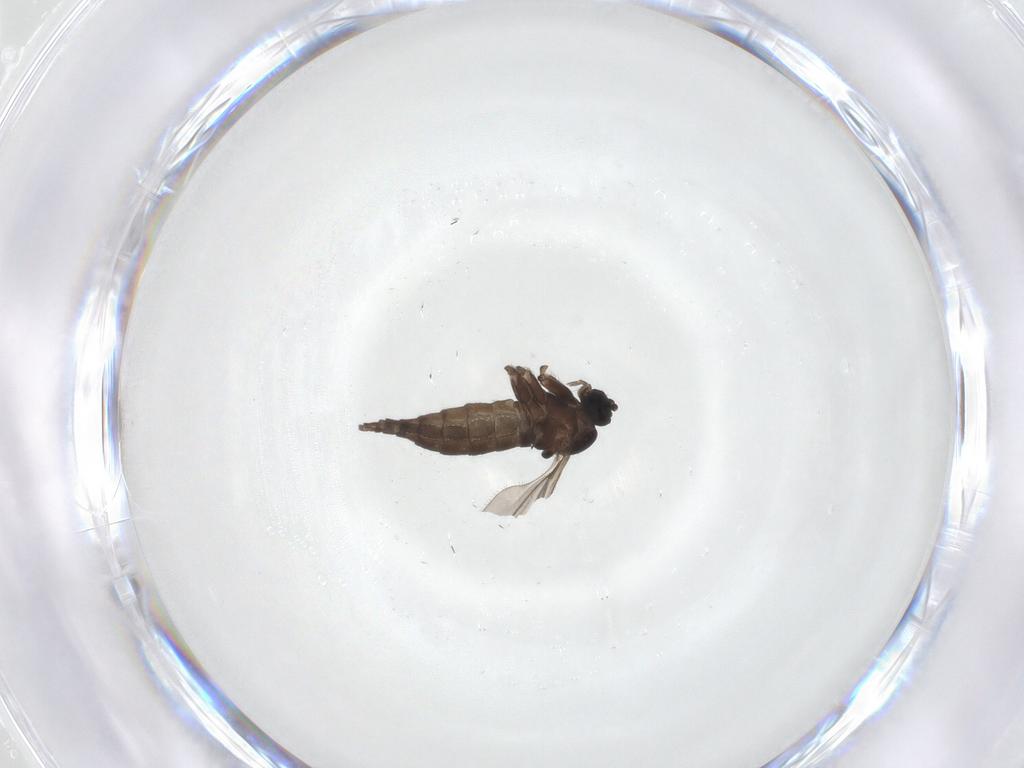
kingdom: Animalia
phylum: Arthropoda
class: Insecta
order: Diptera
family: Sciaridae
